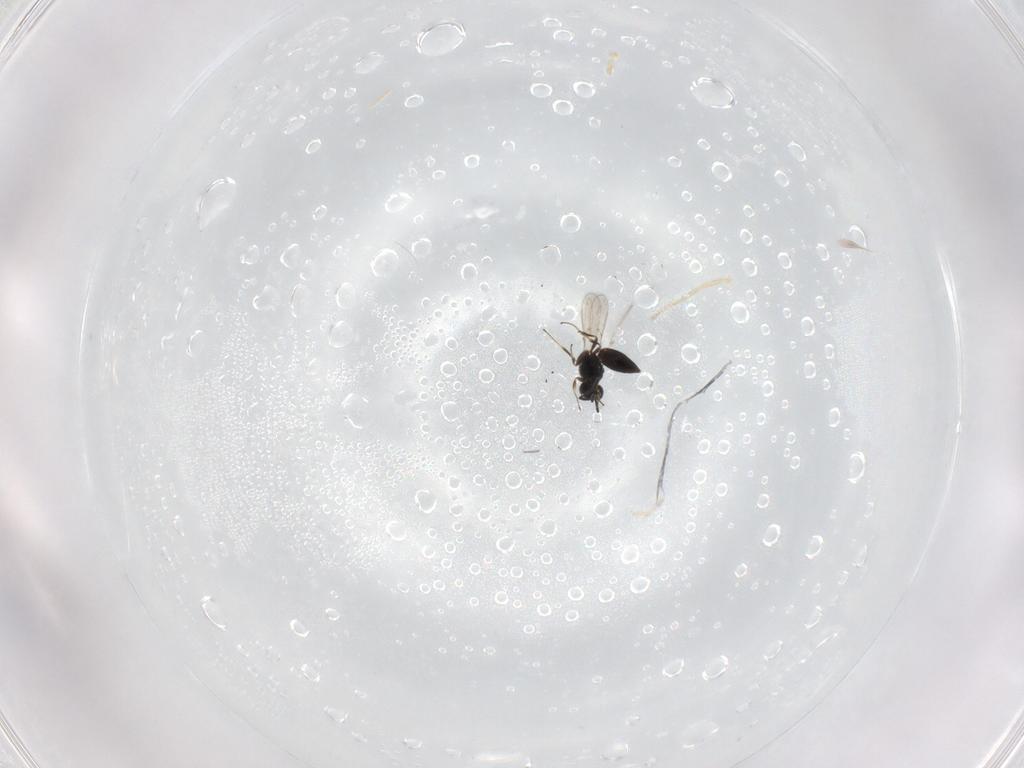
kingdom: Animalia
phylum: Arthropoda
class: Insecta
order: Hymenoptera
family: Scelionidae
